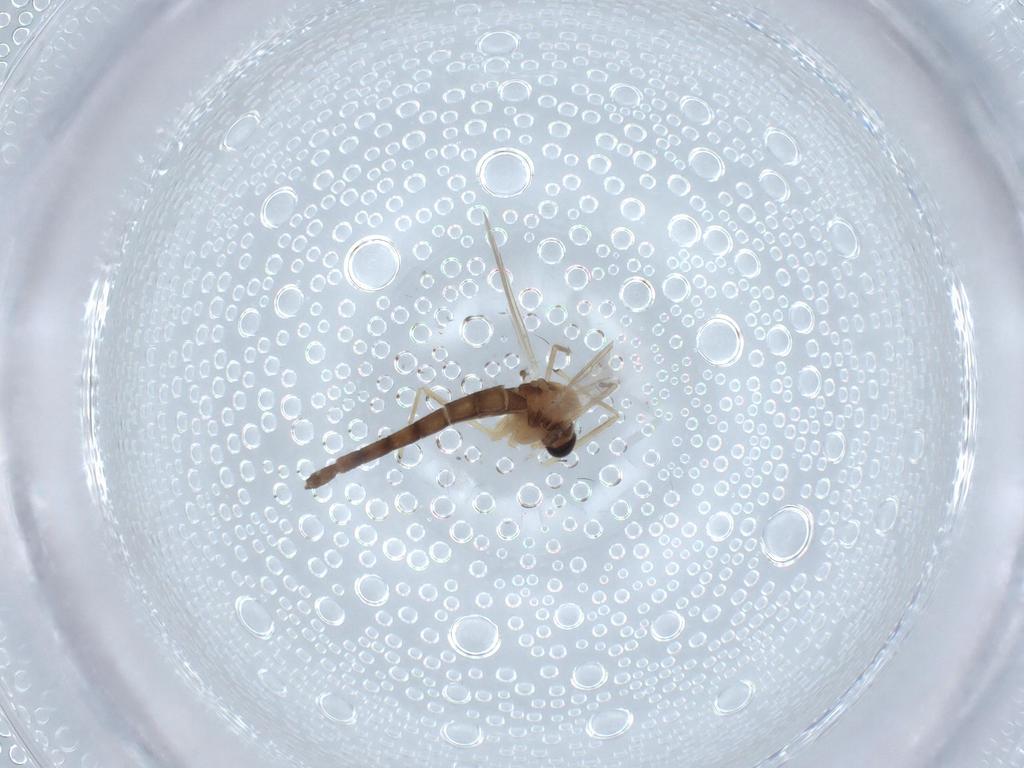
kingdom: Animalia
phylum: Arthropoda
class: Insecta
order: Diptera
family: Chironomidae
